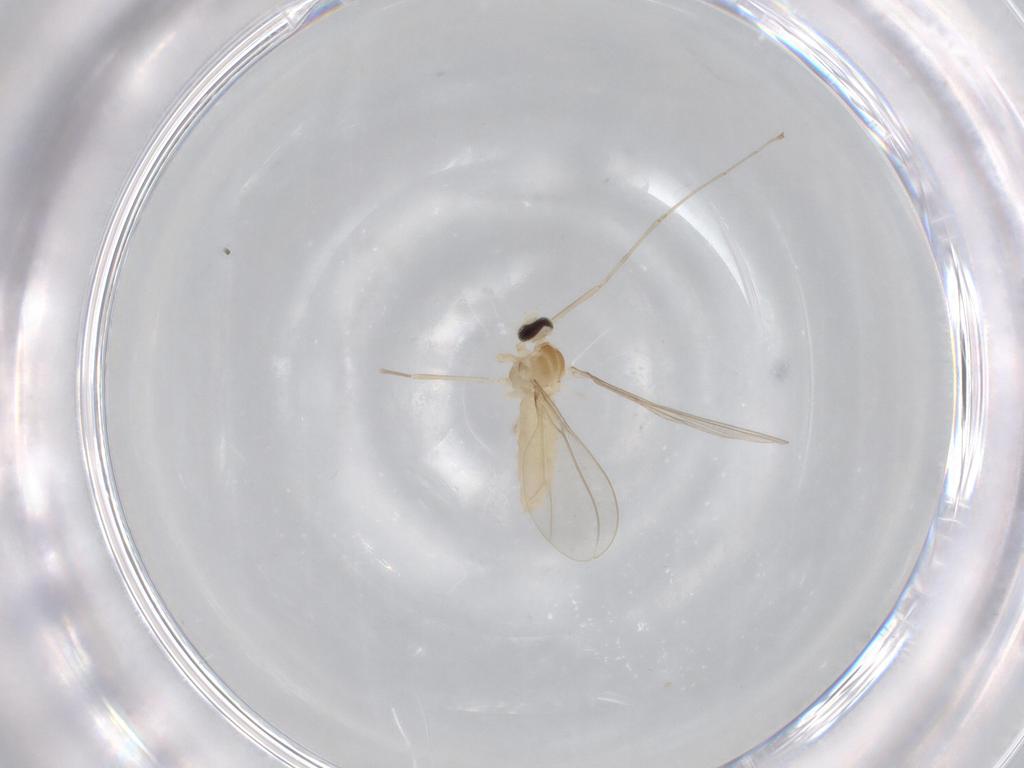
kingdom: Animalia
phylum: Arthropoda
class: Insecta
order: Diptera
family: Cecidomyiidae
